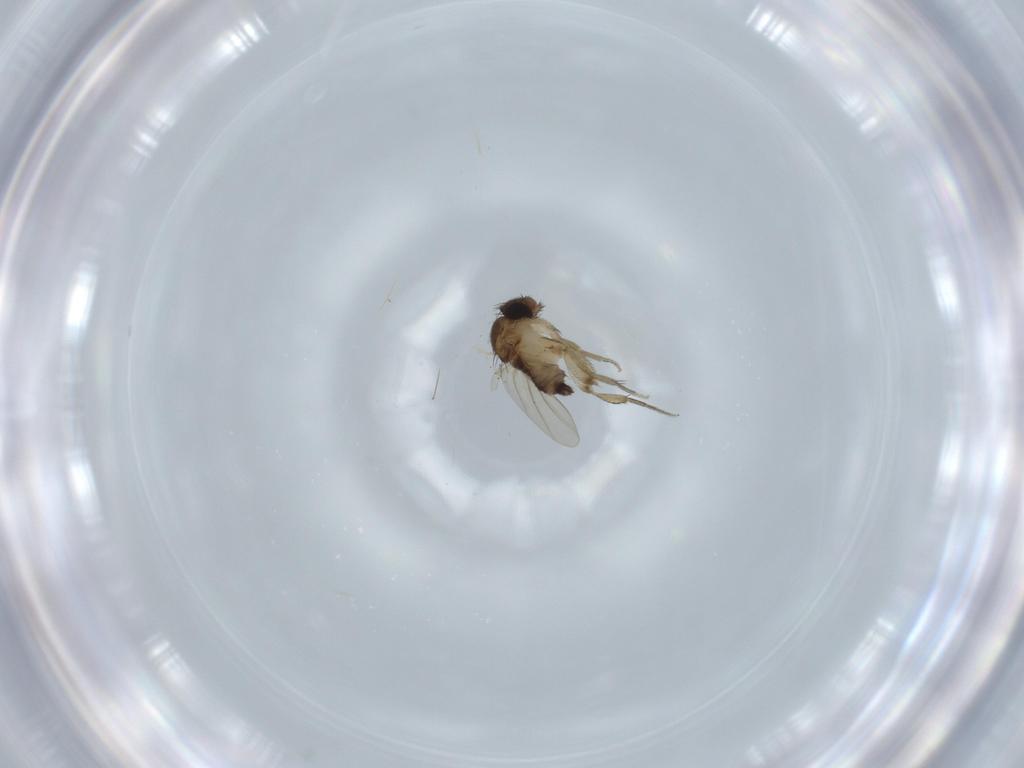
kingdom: Animalia
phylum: Arthropoda
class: Insecta
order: Diptera
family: Phoridae
